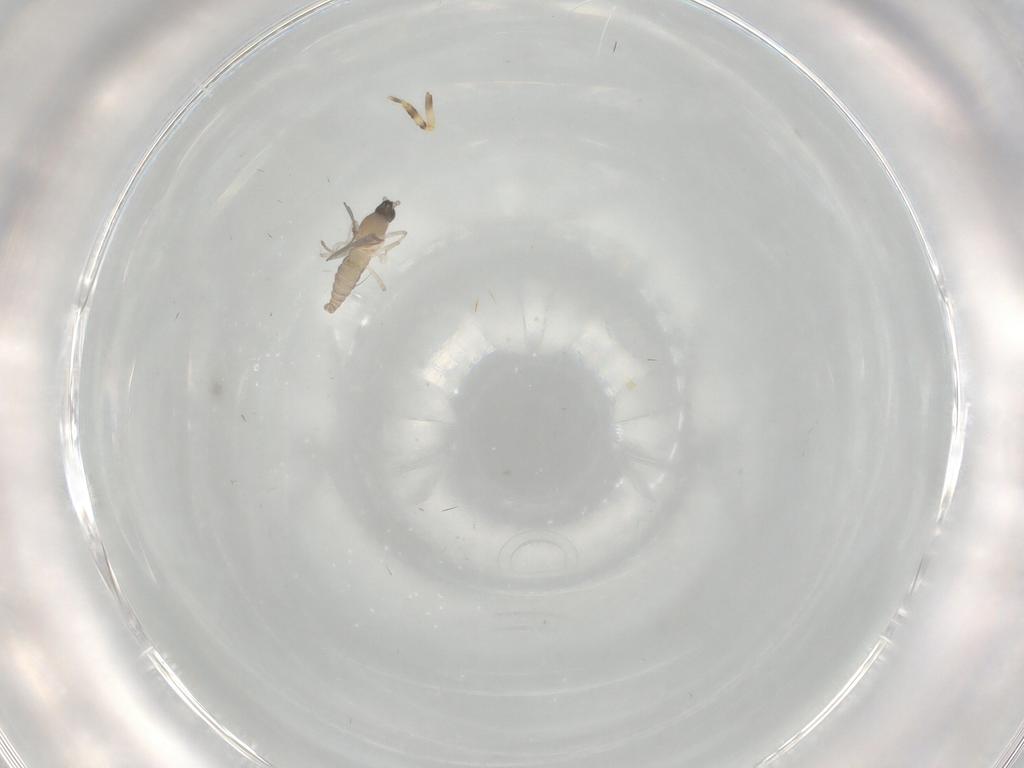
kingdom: Animalia
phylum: Arthropoda
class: Insecta
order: Diptera
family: Cecidomyiidae
